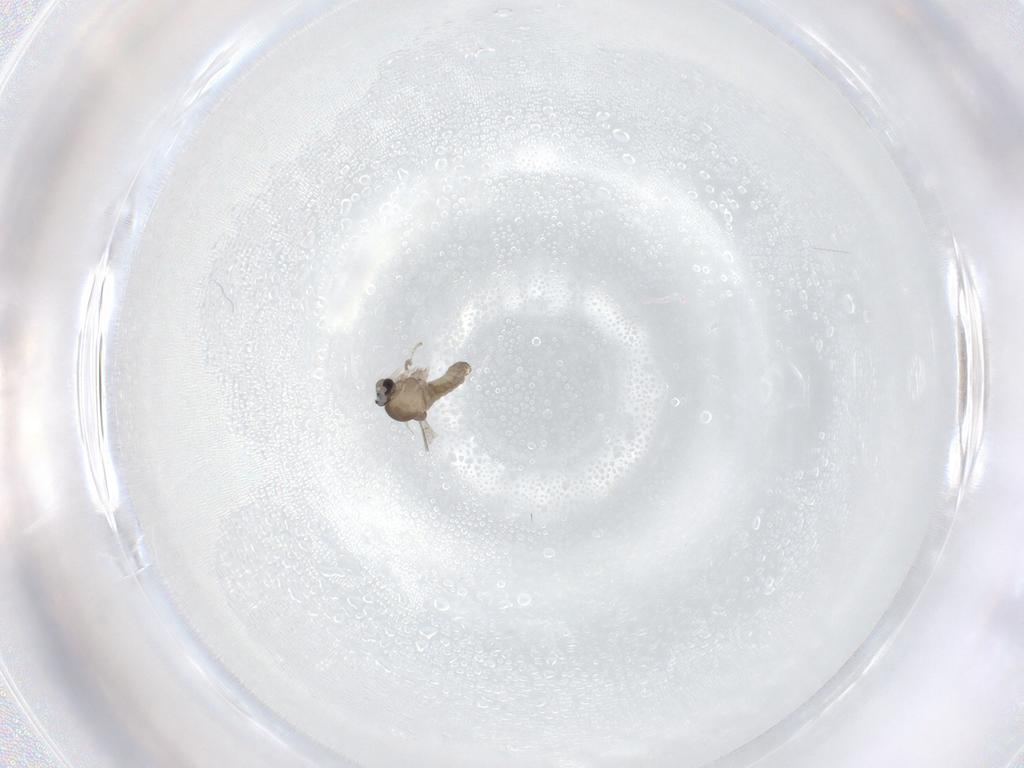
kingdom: Animalia
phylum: Arthropoda
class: Insecta
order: Diptera
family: Cecidomyiidae
